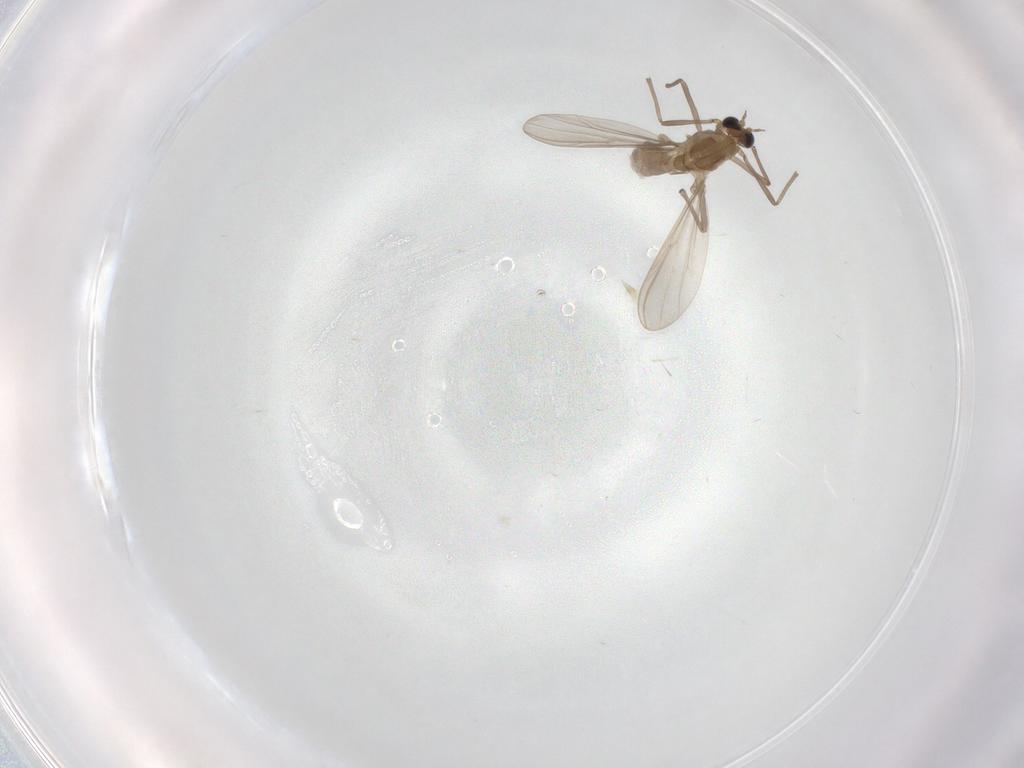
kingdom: Animalia
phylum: Arthropoda
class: Insecta
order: Diptera
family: Chironomidae
